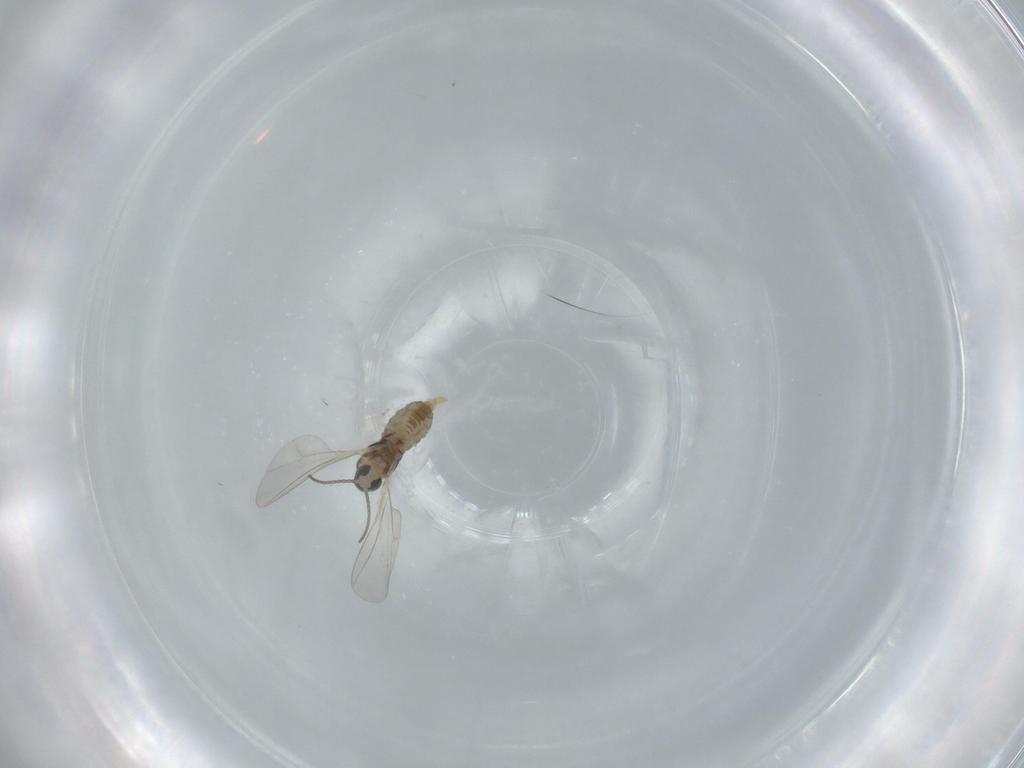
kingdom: Animalia
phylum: Arthropoda
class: Insecta
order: Diptera
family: Cecidomyiidae
